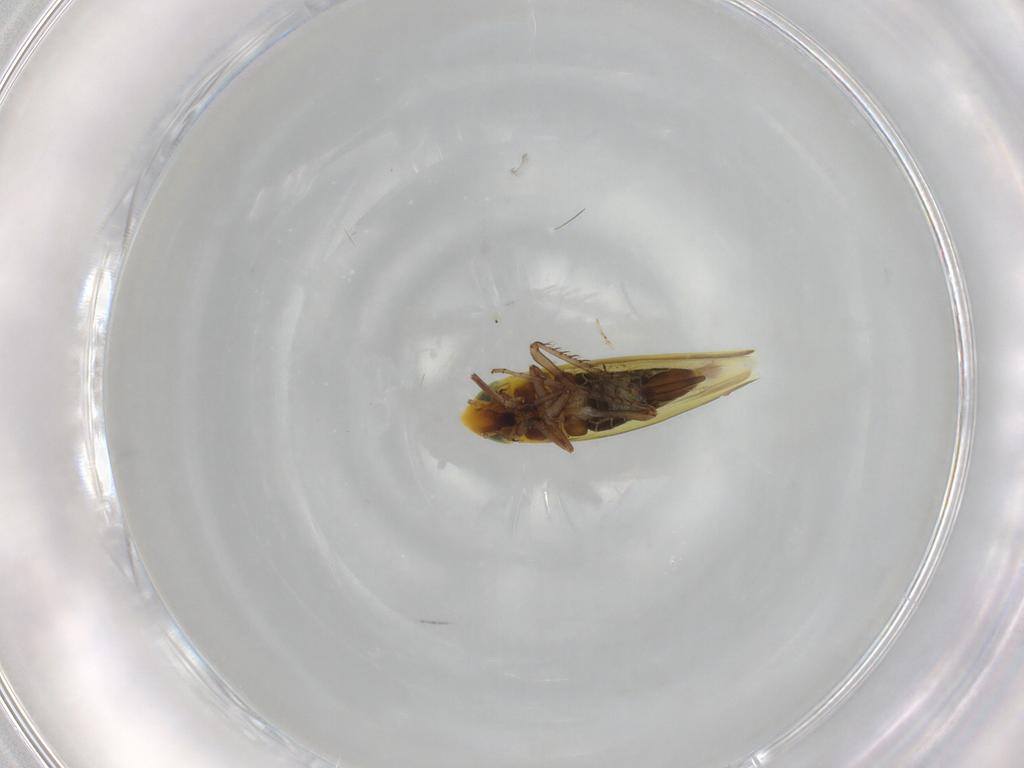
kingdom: Animalia
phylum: Arthropoda
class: Insecta
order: Hemiptera
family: Cicadellidae
